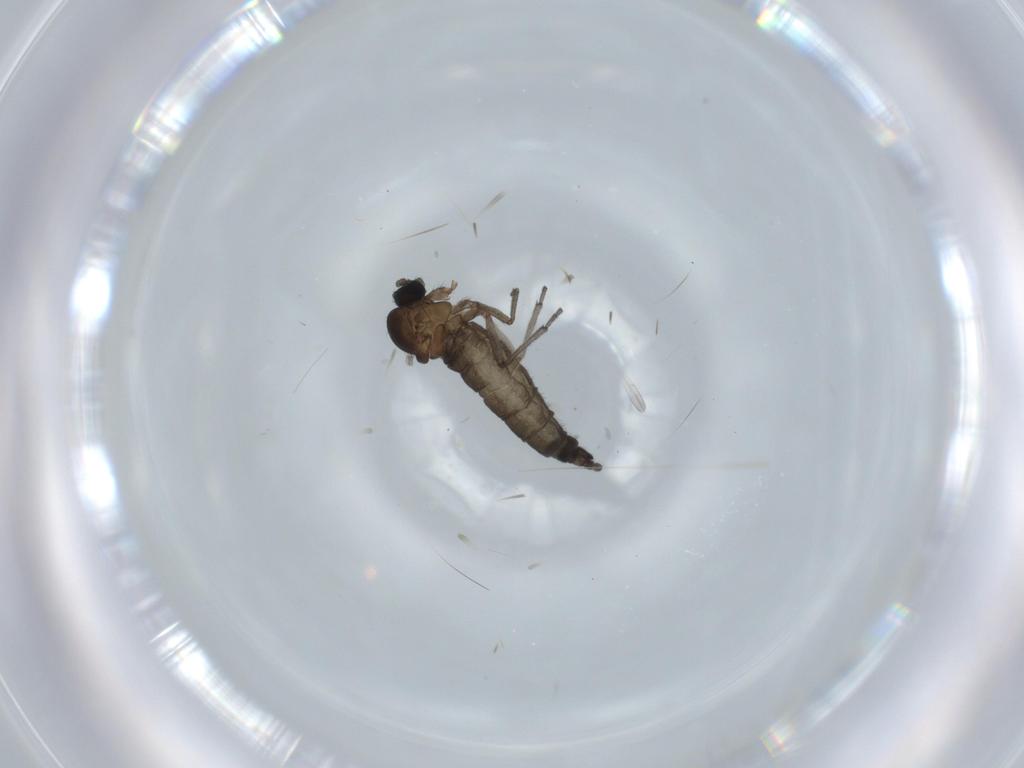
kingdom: Animalia
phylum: Arthropoda
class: Insecta
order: Diptera
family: Sciaridae
